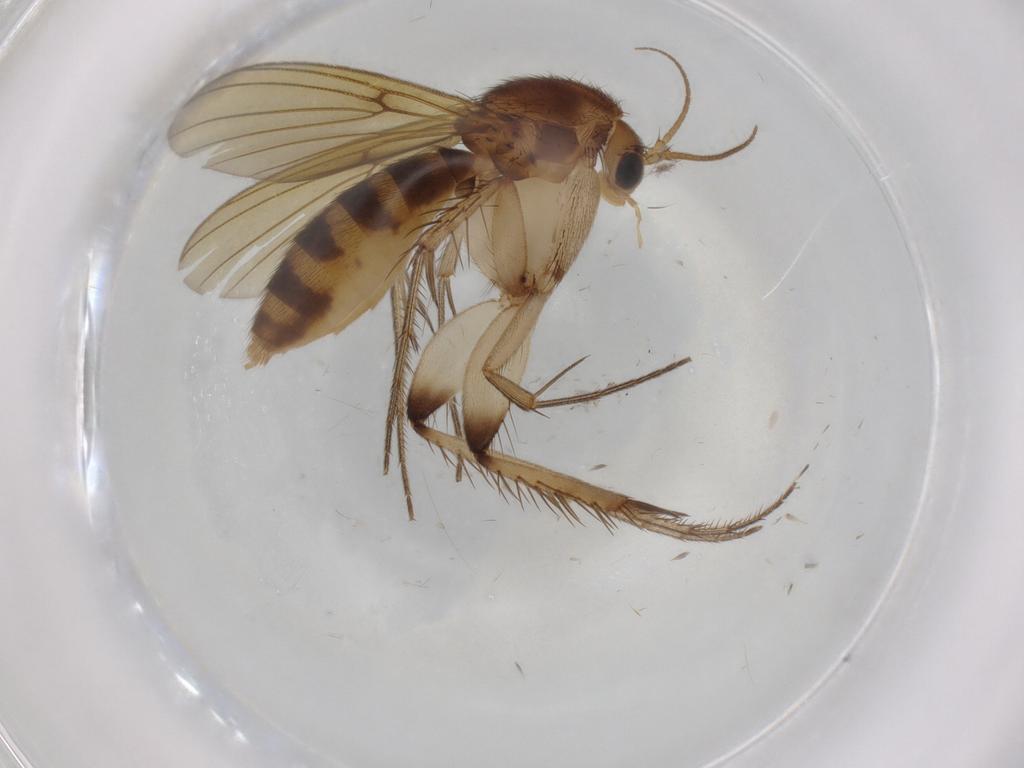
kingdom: Animalia
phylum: Arthropoda
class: Insecta
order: Diptera
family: Mycetophilidae
